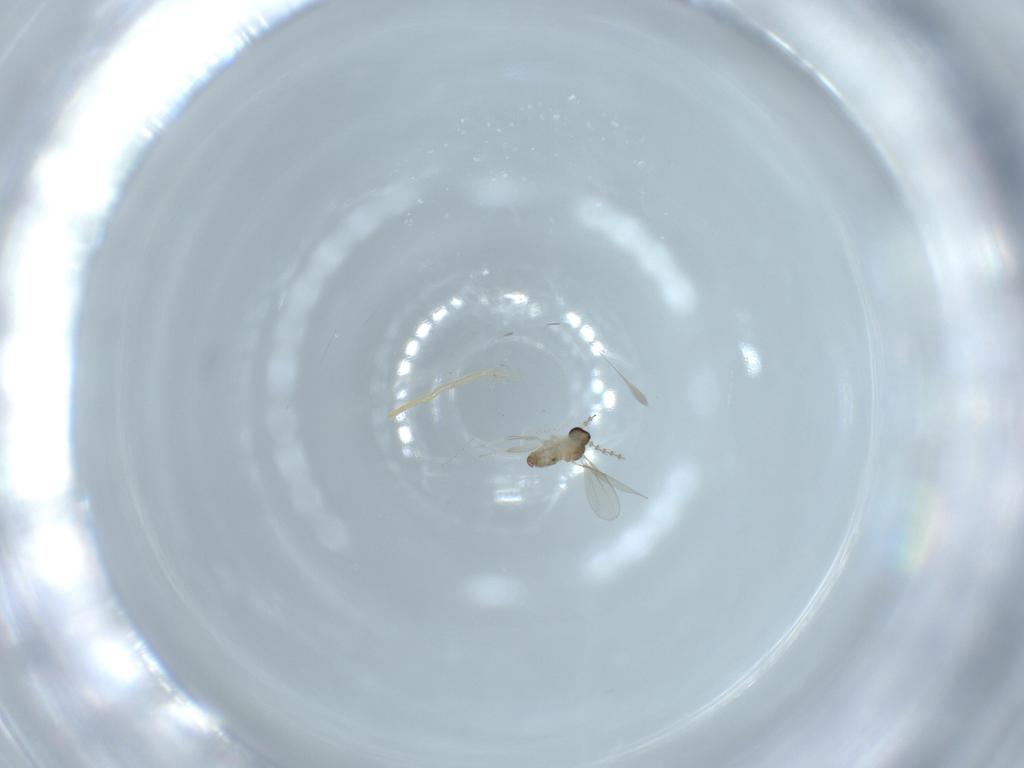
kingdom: Animalia
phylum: Arthropoda
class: Insecta
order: Diptera
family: Cecidomyiidae
